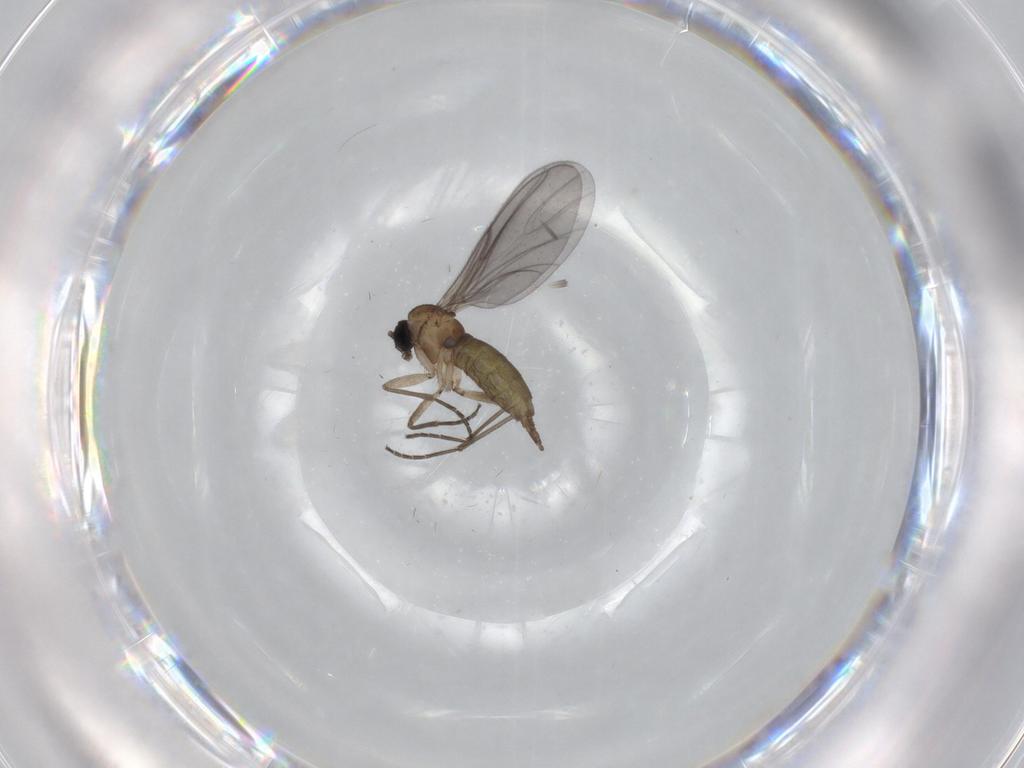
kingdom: Animalia
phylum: Arthropoda
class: Insecta
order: Diptera
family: Sciaridae
